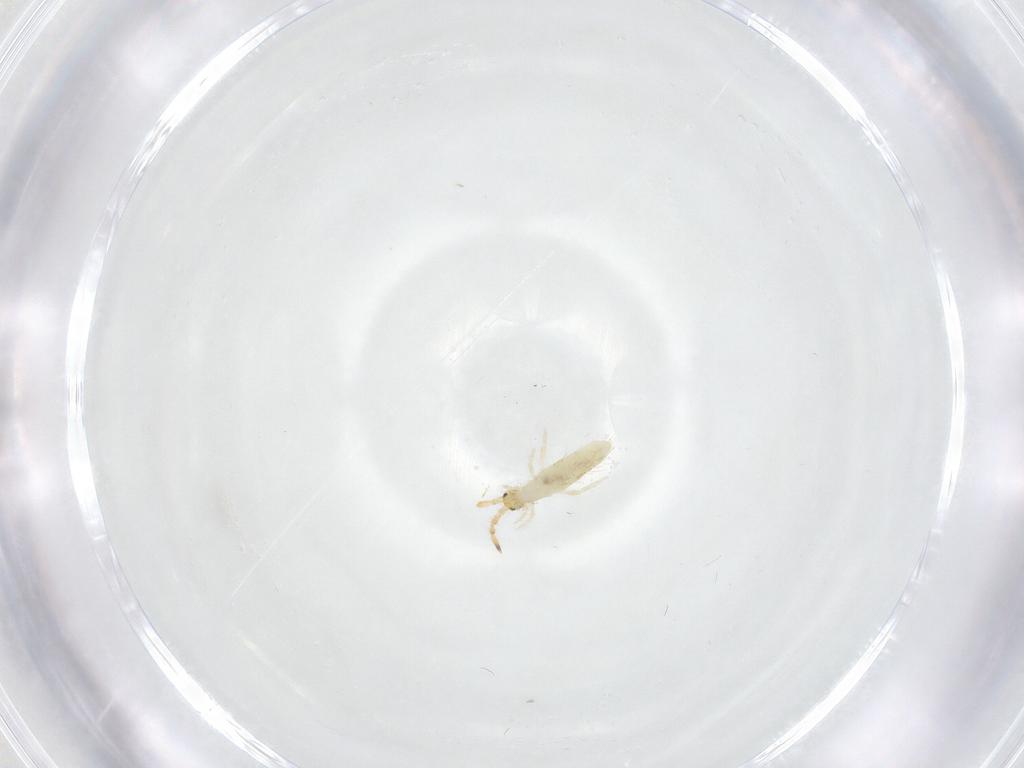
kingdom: Animalia
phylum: Arthropoda
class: Collembola
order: Entomobryomorpha
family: Entomobryidae
